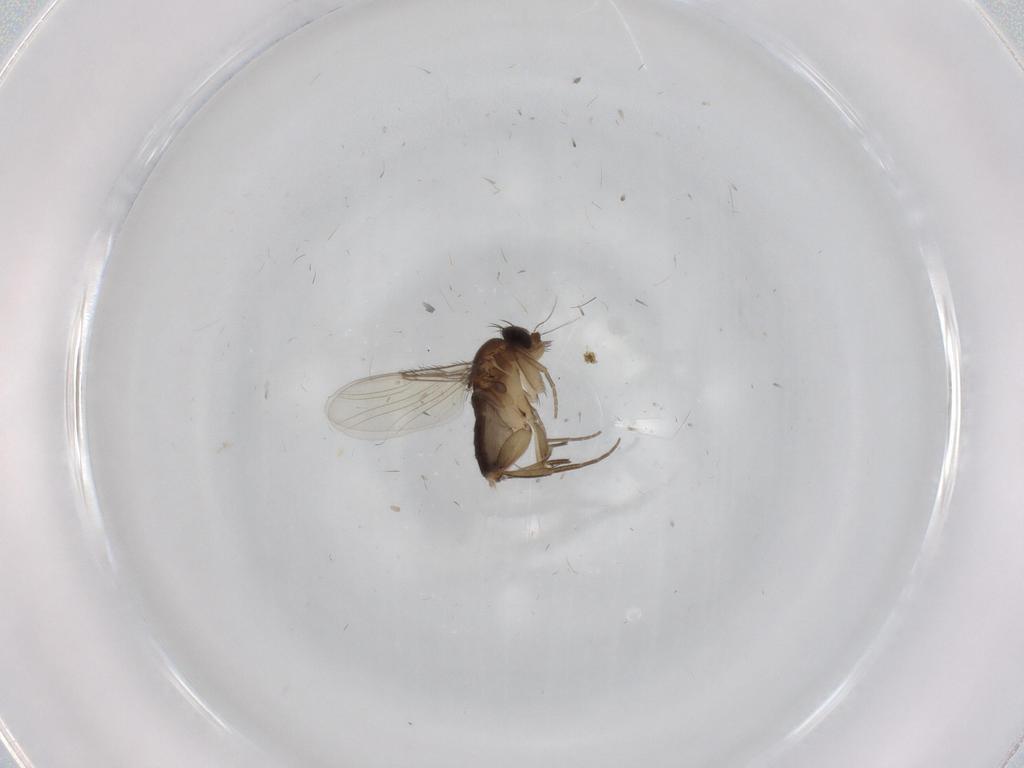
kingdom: Animalia
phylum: Arthropoda
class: Insecta
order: Diptera
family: Phoridae
